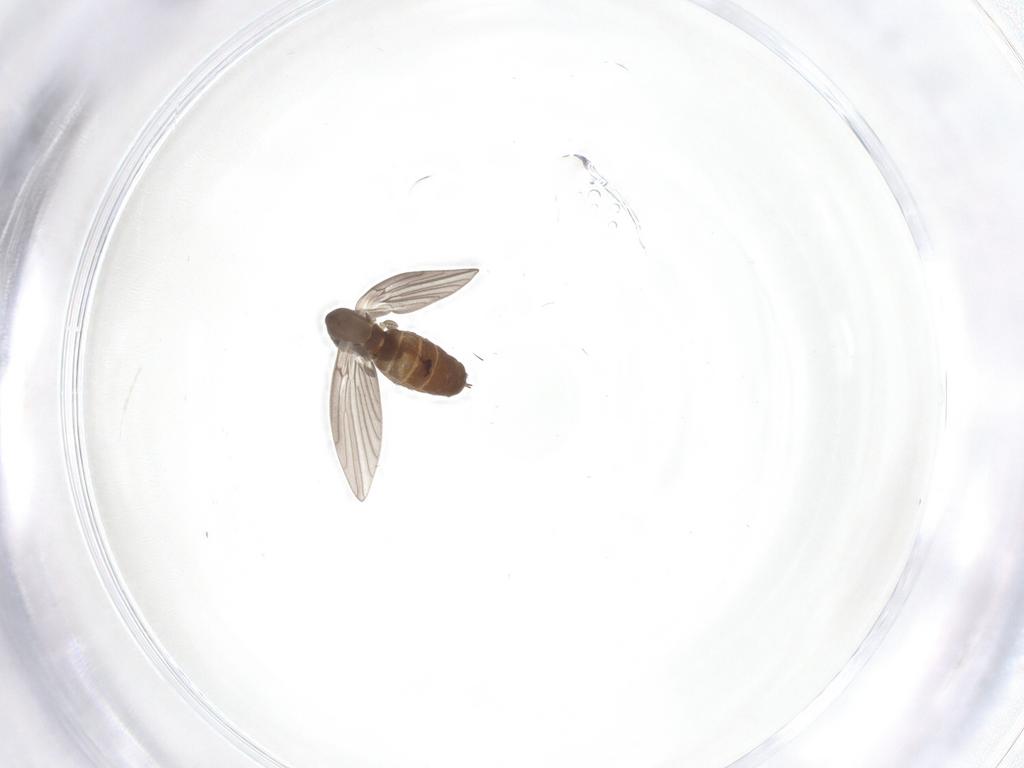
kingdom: Animalia
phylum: Arthropoda
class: Insecta
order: Diptera
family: Psychodidae
